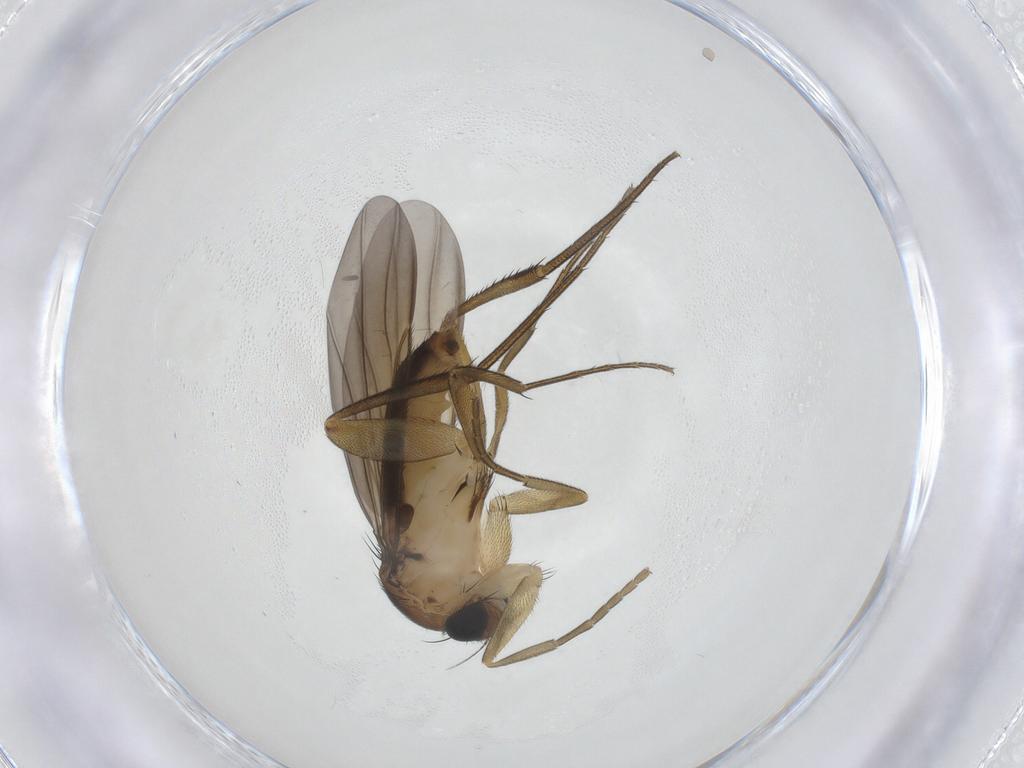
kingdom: Animalia
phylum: Arthropoda
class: Insecta
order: Diptera
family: Phoridae
